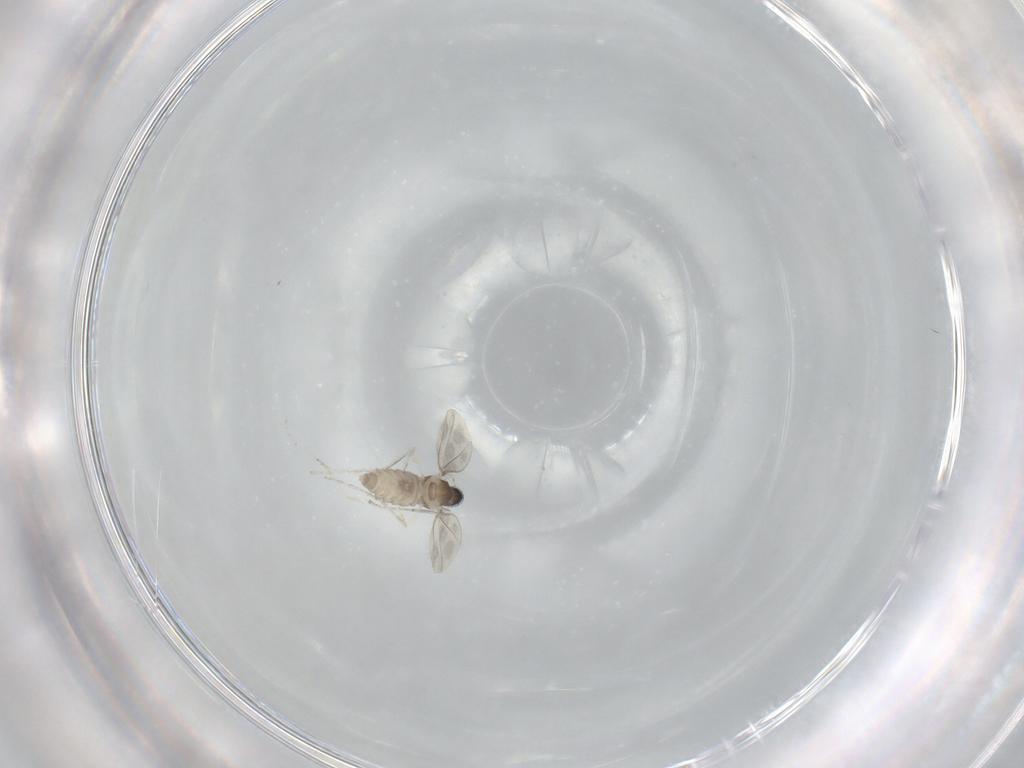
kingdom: Animalia
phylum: Arthropoda
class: Insecta
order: Diptera
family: Cecidomyiidae
